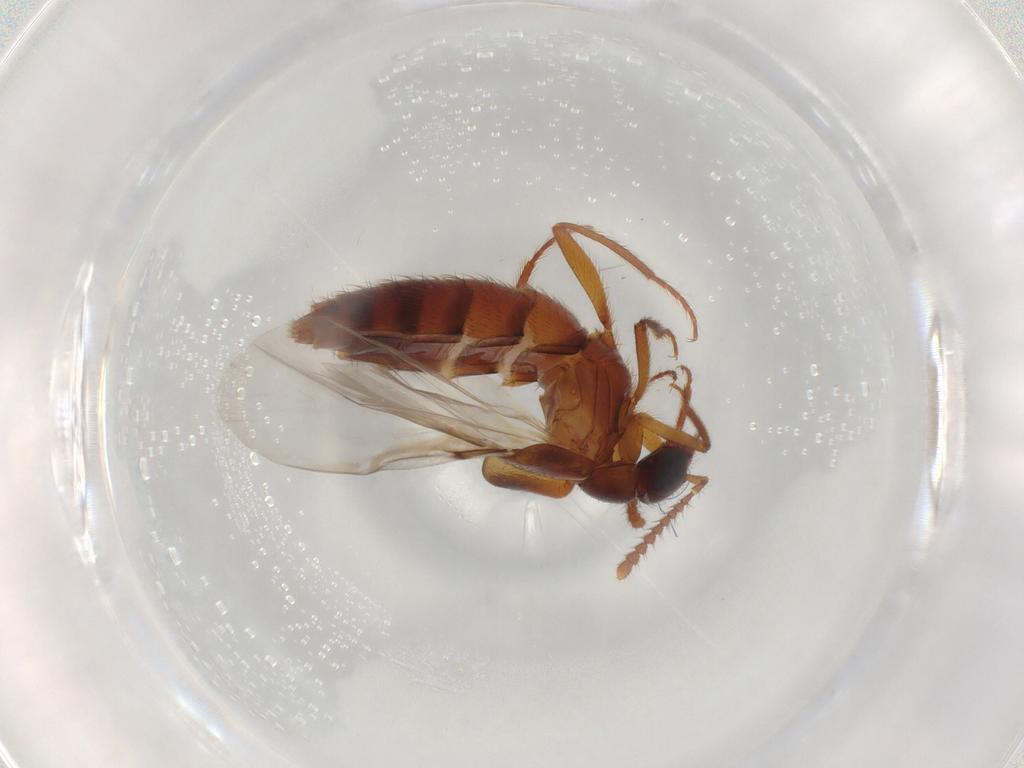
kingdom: Animalia
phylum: Arthropoda
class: Insecta
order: Coleoptera
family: Staphylinidae
